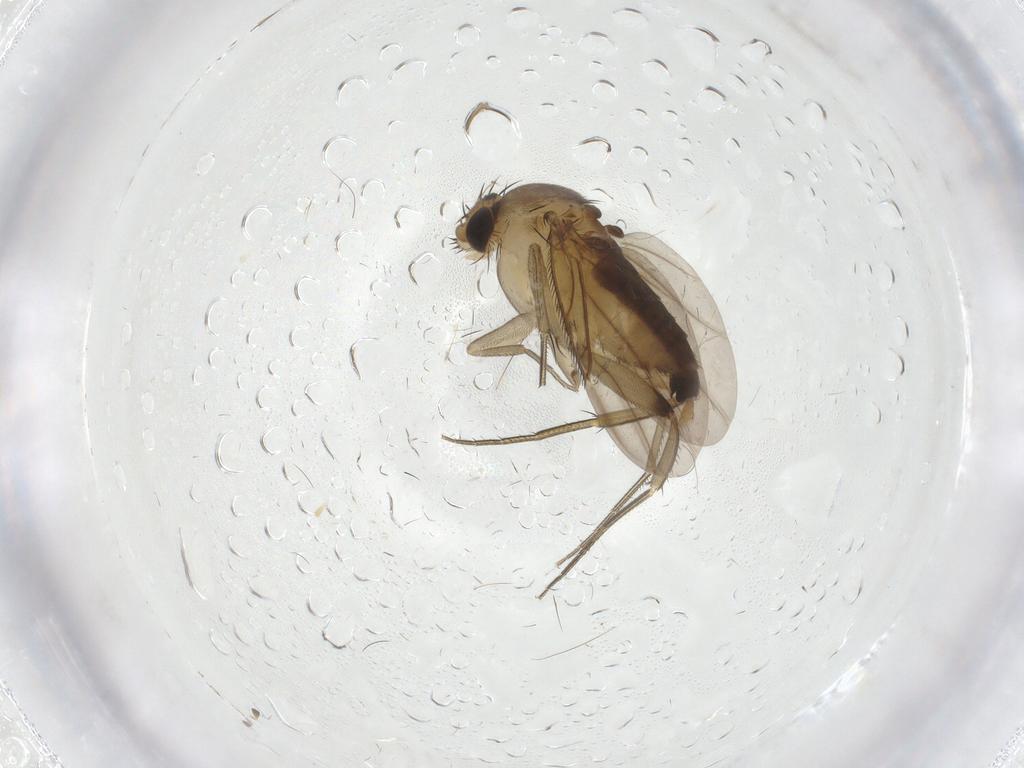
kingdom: Animalia
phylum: Arthropoda
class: Insecta
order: Diptera
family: Phoridae
